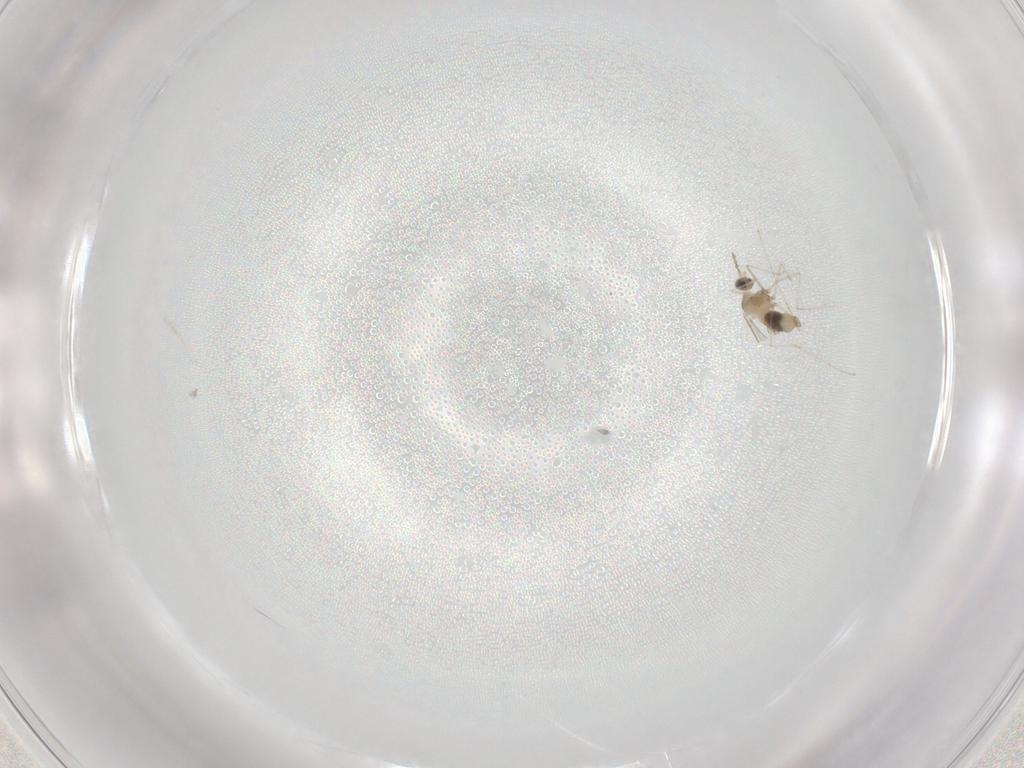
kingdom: Animalia
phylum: Arthropoda
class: Insecta
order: Diptera
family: Cecidomyiidae
